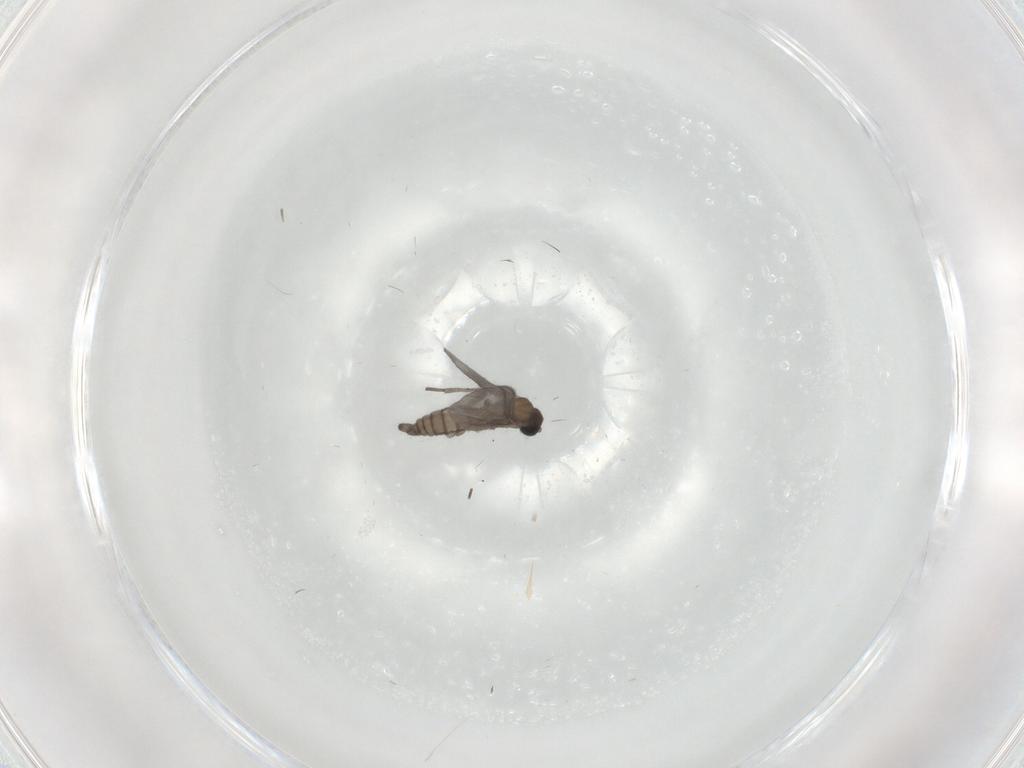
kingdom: Animalia
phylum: Arthropoda
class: Insecta
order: Diptera
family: Sciaridae
